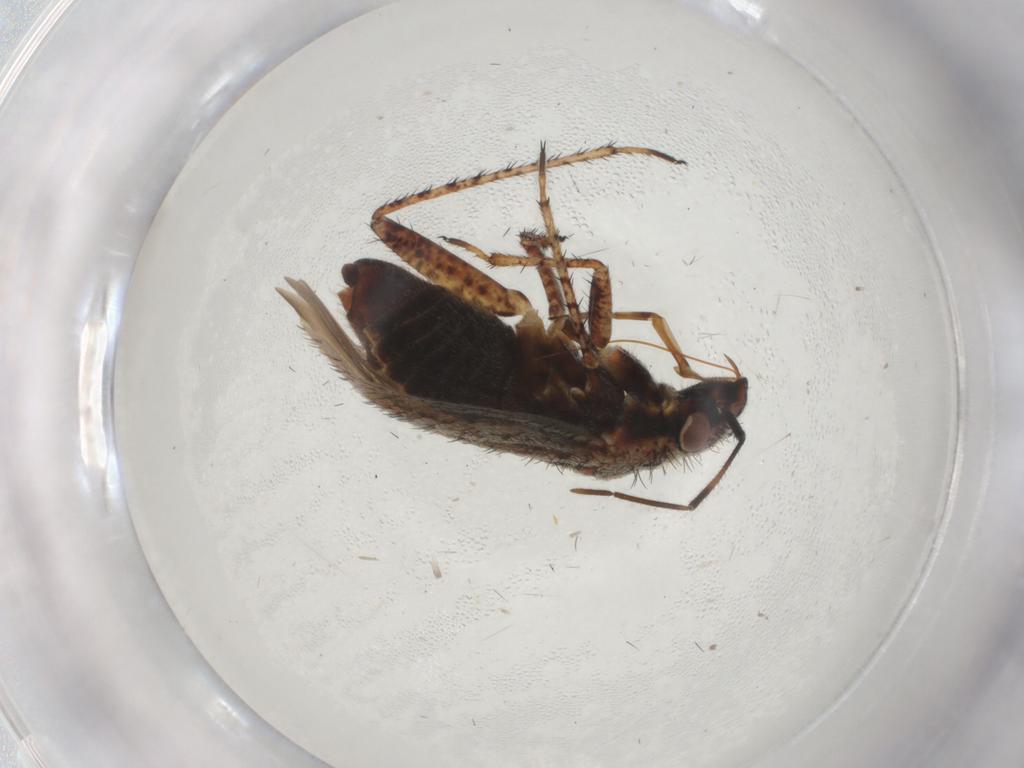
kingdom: Animalia
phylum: Arthropoda
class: Insecta
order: Hemiptera
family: Miridae
